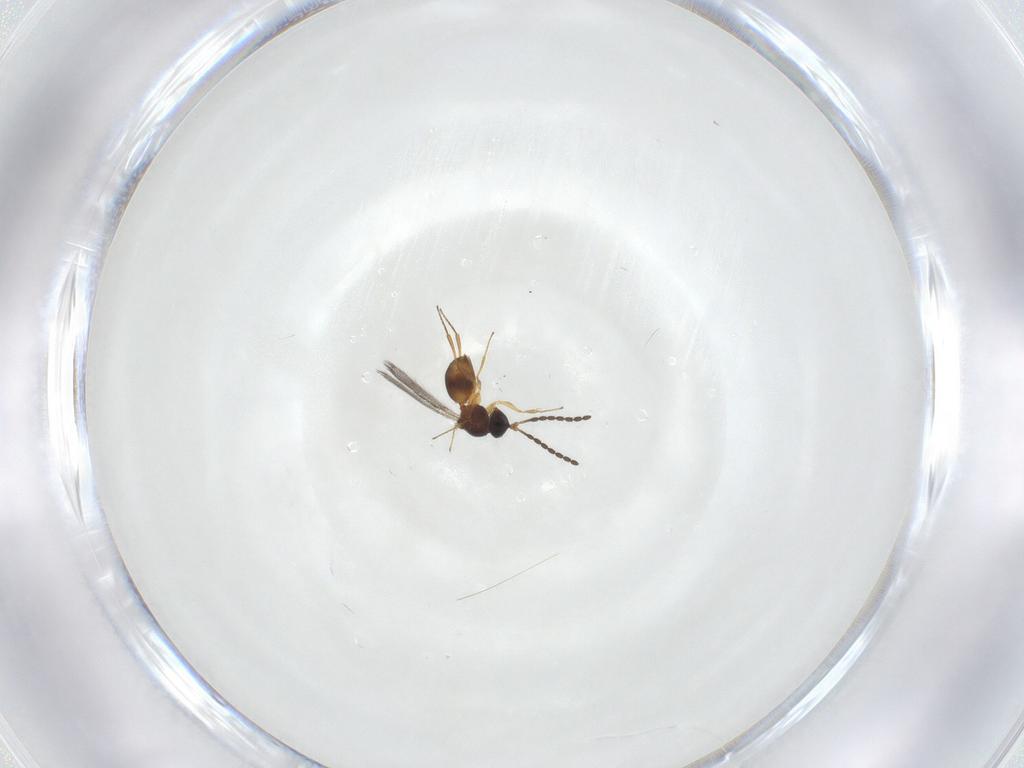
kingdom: Animalia
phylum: Arthropoda
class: Insecta
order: Hymenoptera
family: Figitidae
